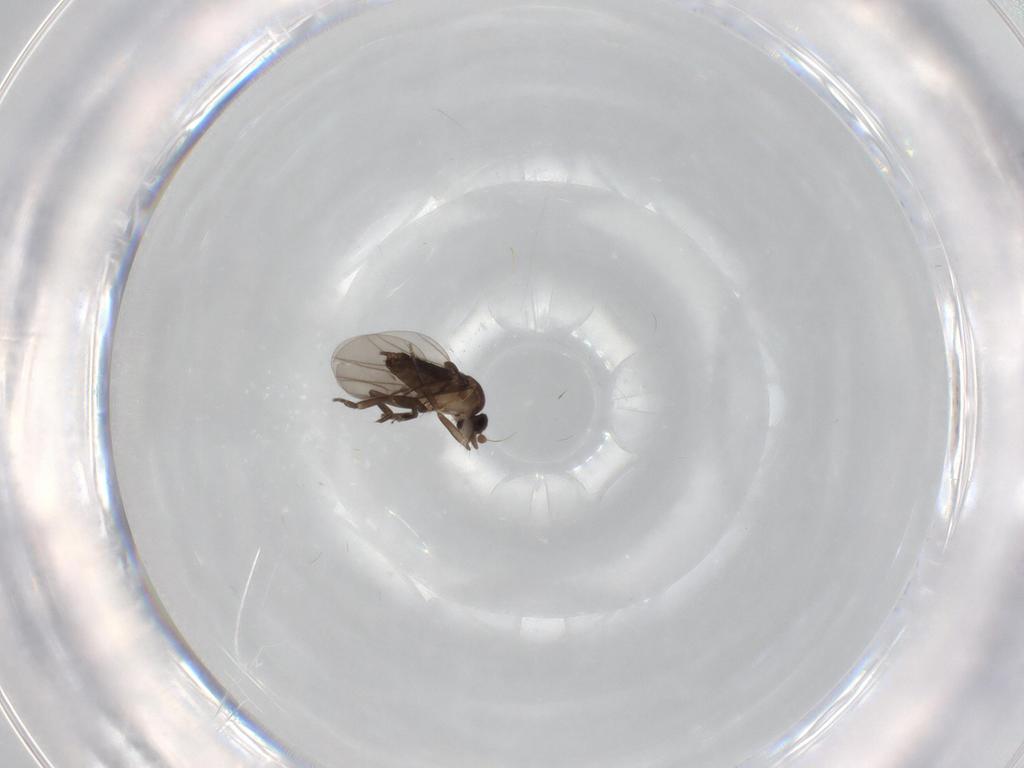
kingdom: Animalia
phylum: Arthropoda
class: Insecta
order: Diptera
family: Phoridae
